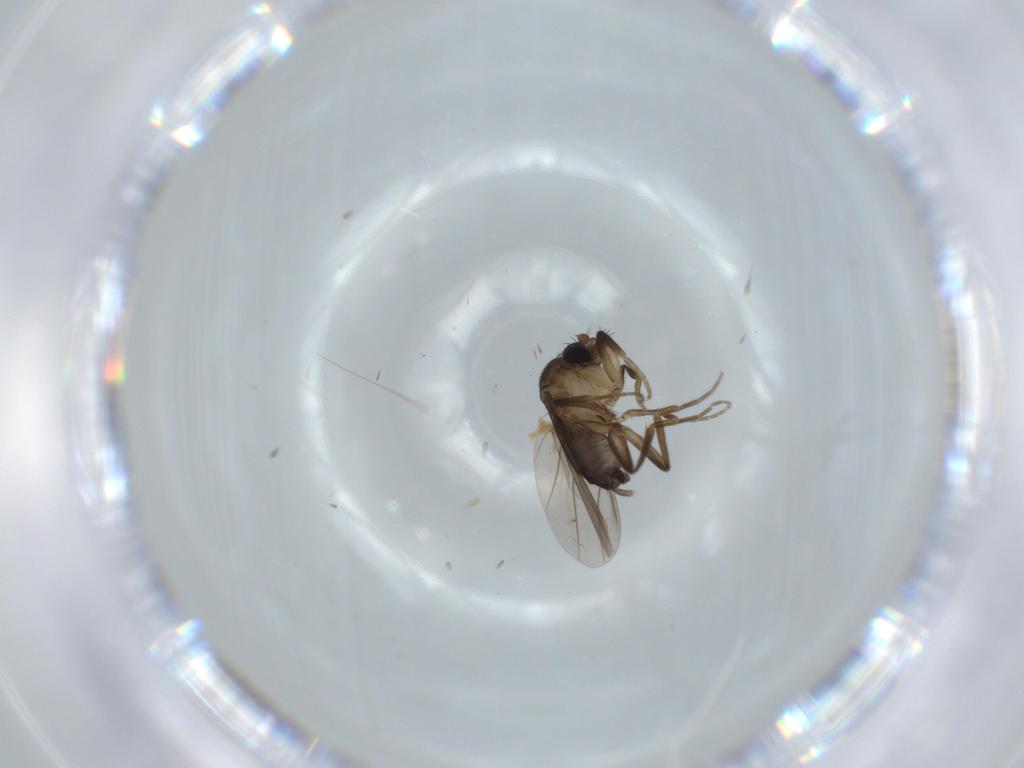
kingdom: Animalia
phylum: Arthropoda
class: Insecta
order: Diptera
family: Phoridae
